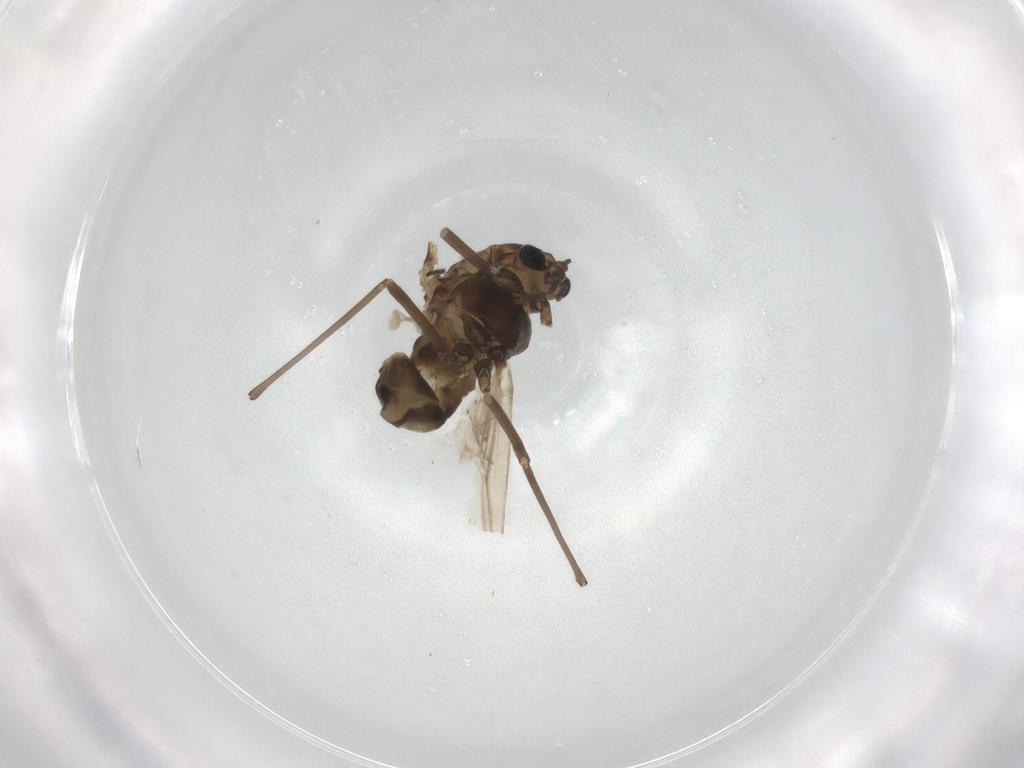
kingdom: Animalia
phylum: Arthropoda
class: Insecta
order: Diptera
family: Chironomidae
